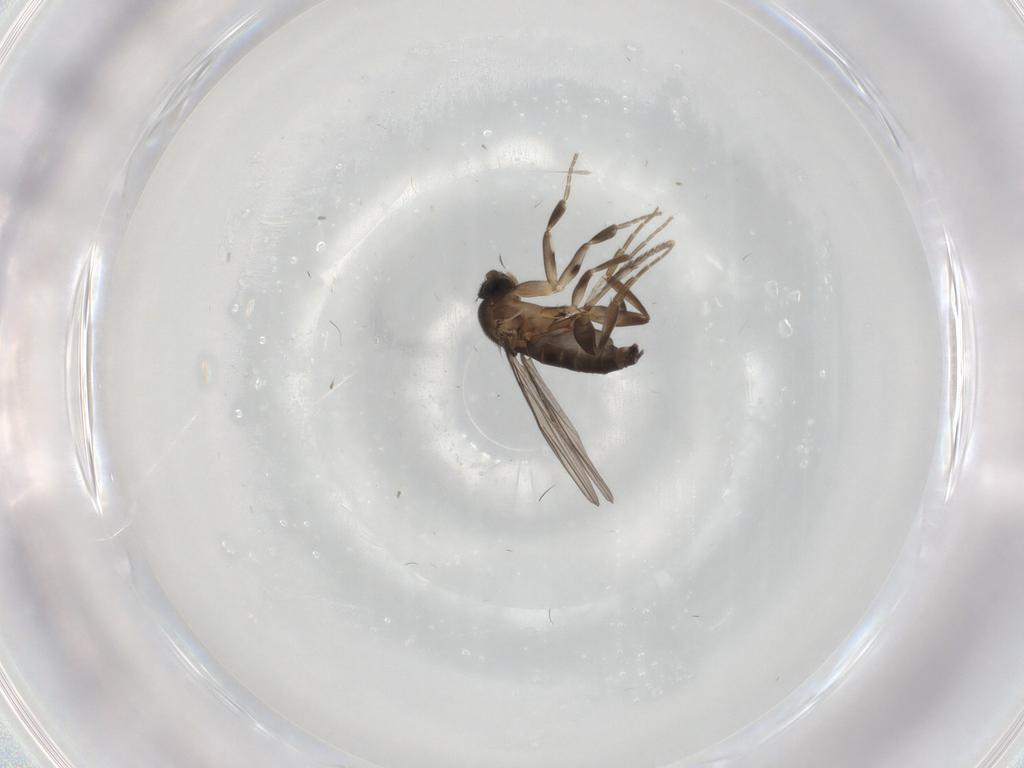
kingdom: Animalia
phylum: Arthropoda
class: Insecta
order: Diptera
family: Phoridae
